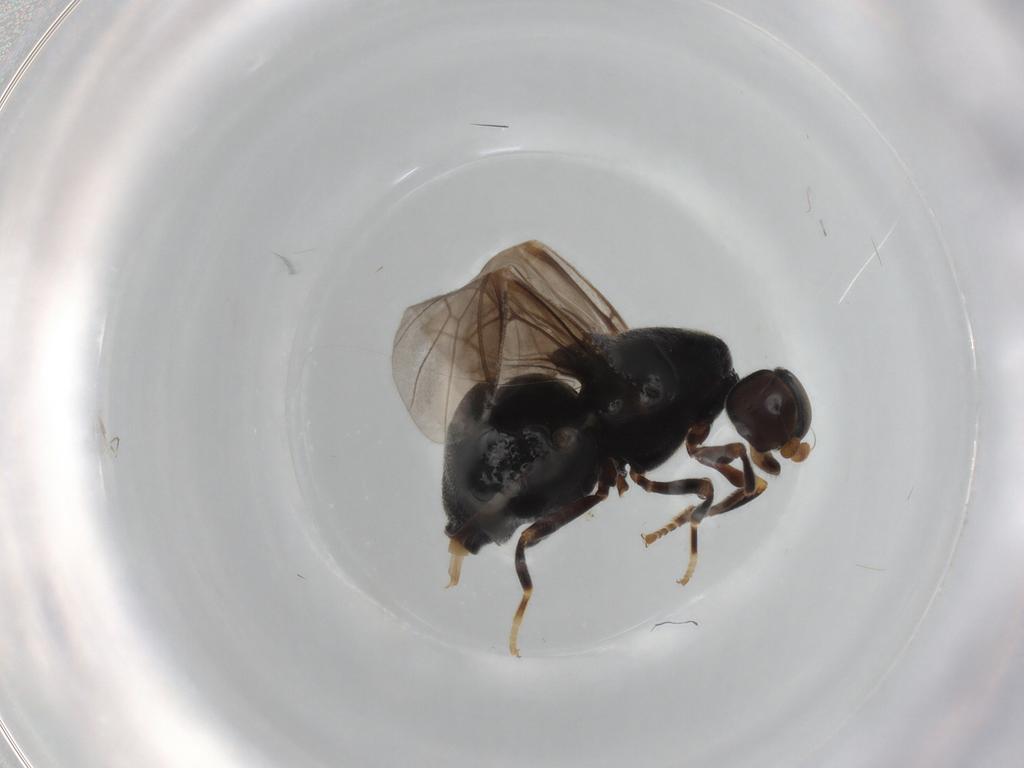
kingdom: Animalia
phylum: Arthropoda
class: Insecta
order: Diptera
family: Stratiomyidae
